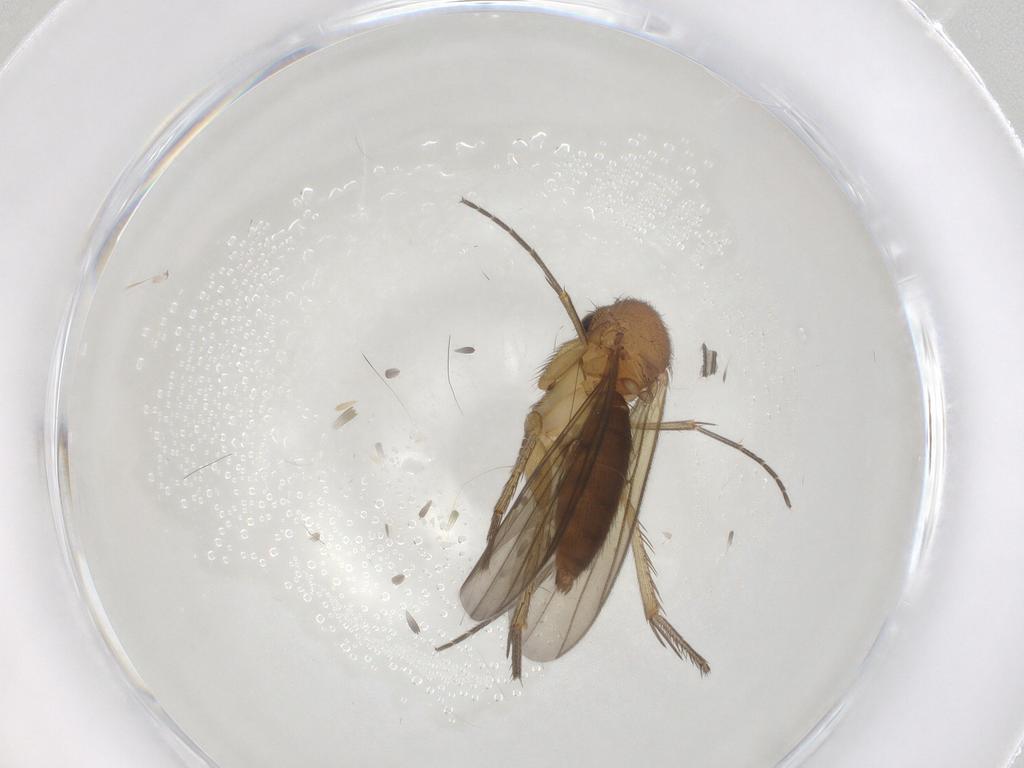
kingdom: Animalia
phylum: Arthropoda
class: Insecta
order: Diptera
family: Mycetophilidae
